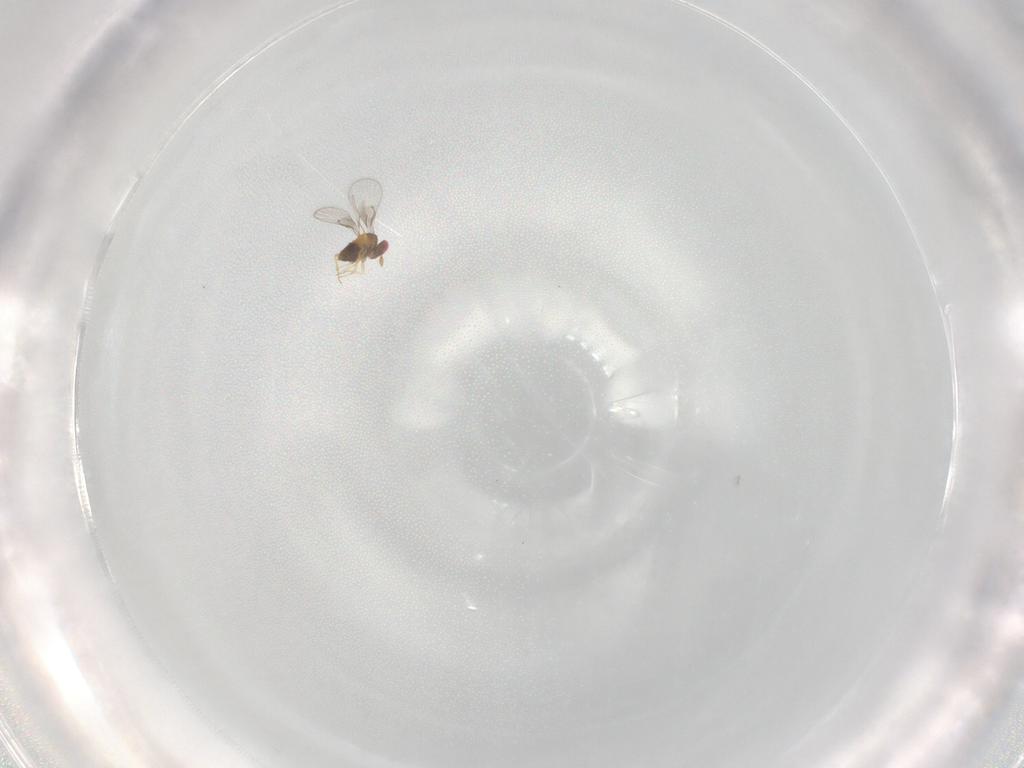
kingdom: Animalia
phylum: Arthropoda
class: Insecta
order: Hymenoptera
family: Trichogrammatidae
